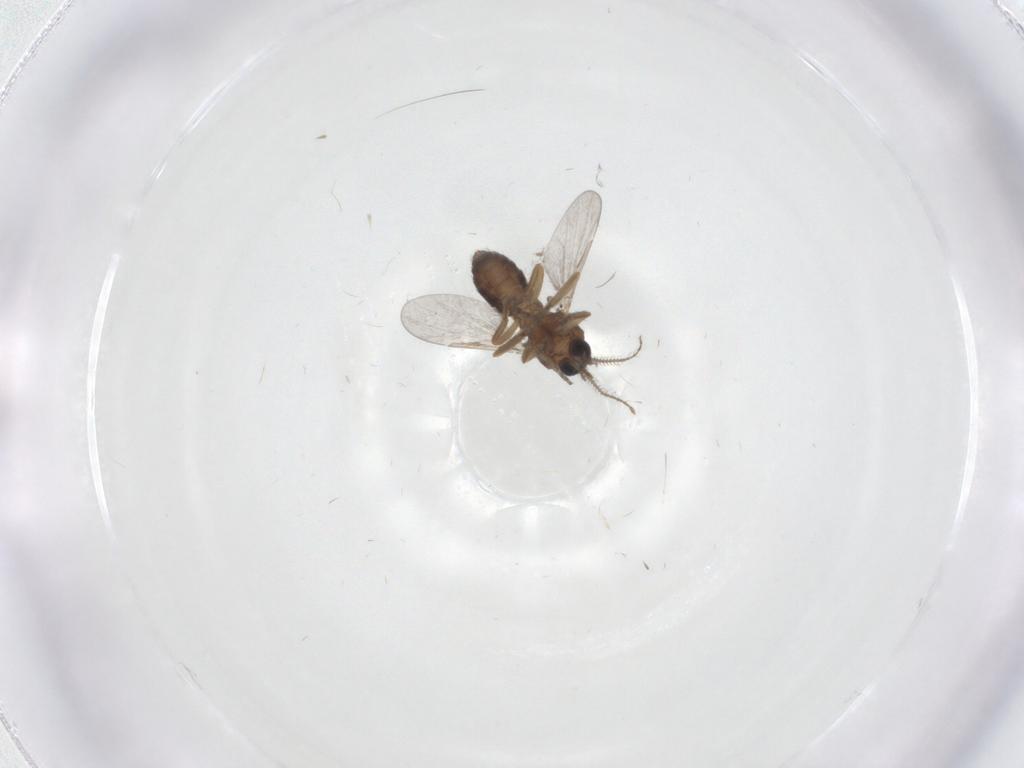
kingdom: Animalia
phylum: Arthropoda
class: Insecta
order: Diptera
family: Ceratopogonidae
